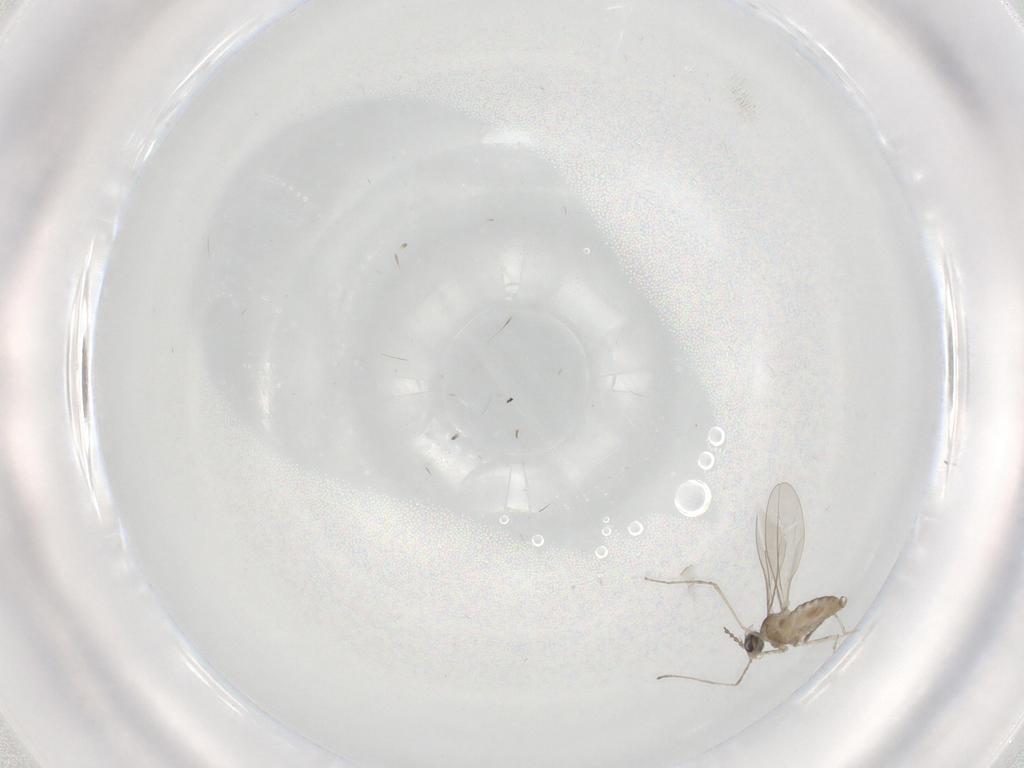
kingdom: Animalia
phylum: Arthropoda
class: Insecta
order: Diptera
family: Cecidomyiidae
